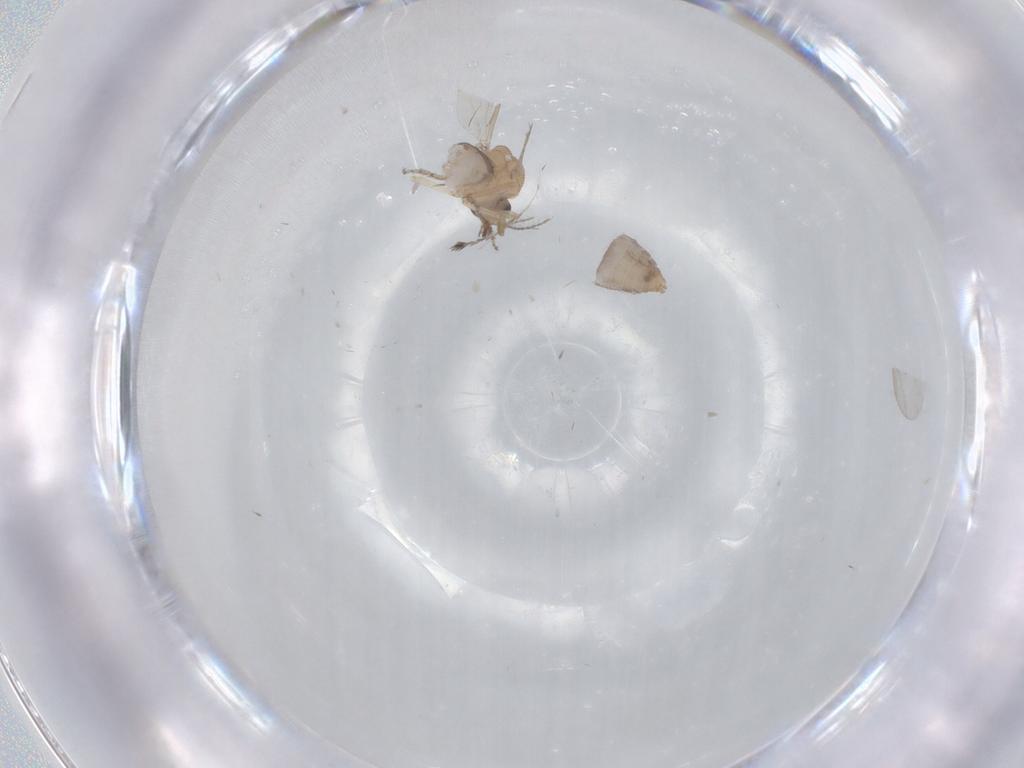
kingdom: Animalia
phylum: Arthropoda
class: Insecta
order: Diptera
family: Ceratopogonidae
